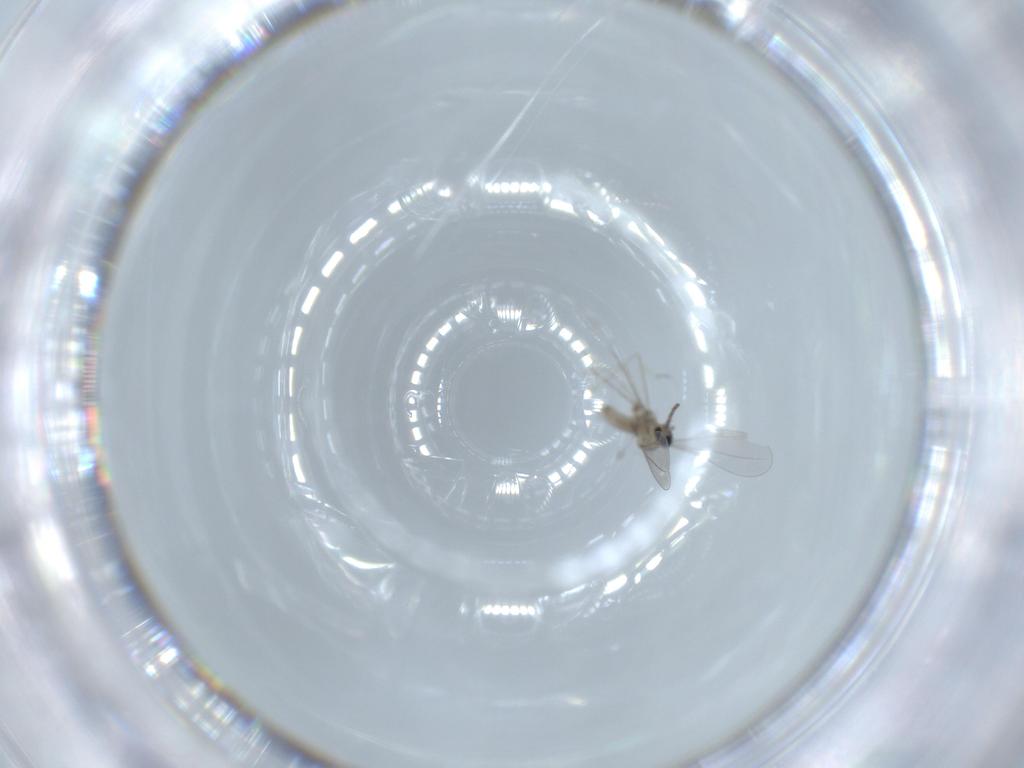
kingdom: Animalia
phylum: Arthropoda
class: Insecta
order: Diptera
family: Cecidomyiidae
